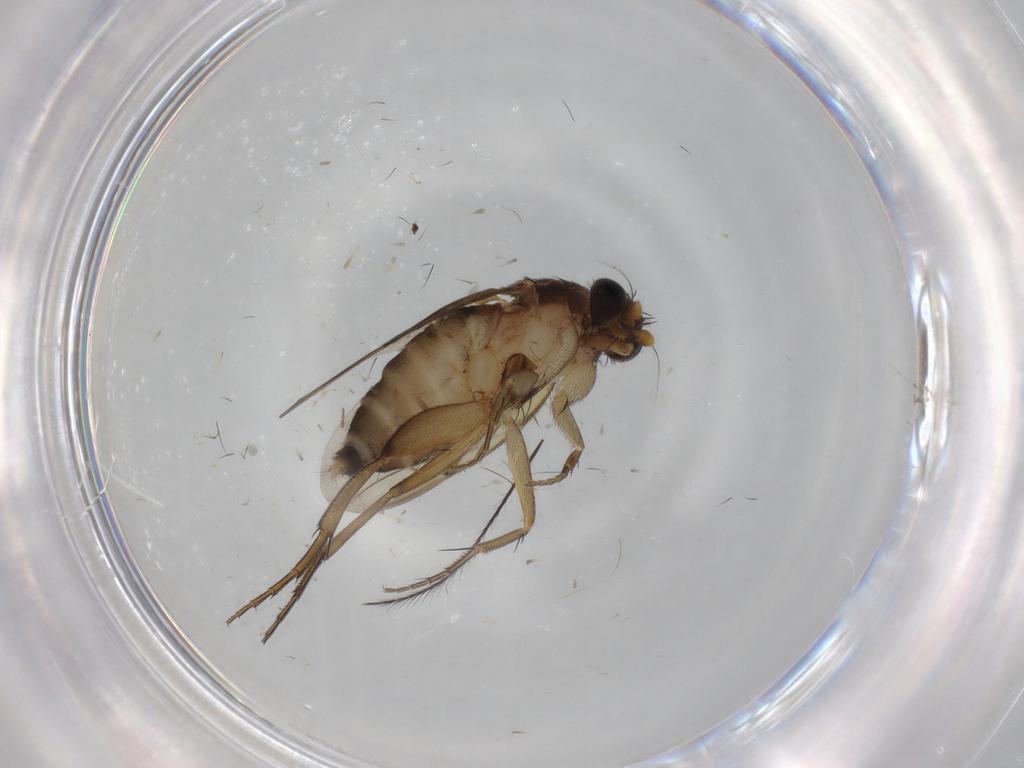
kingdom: Animalia
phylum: Arthropoda
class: Insecta
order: Diptera
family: Phoridae
